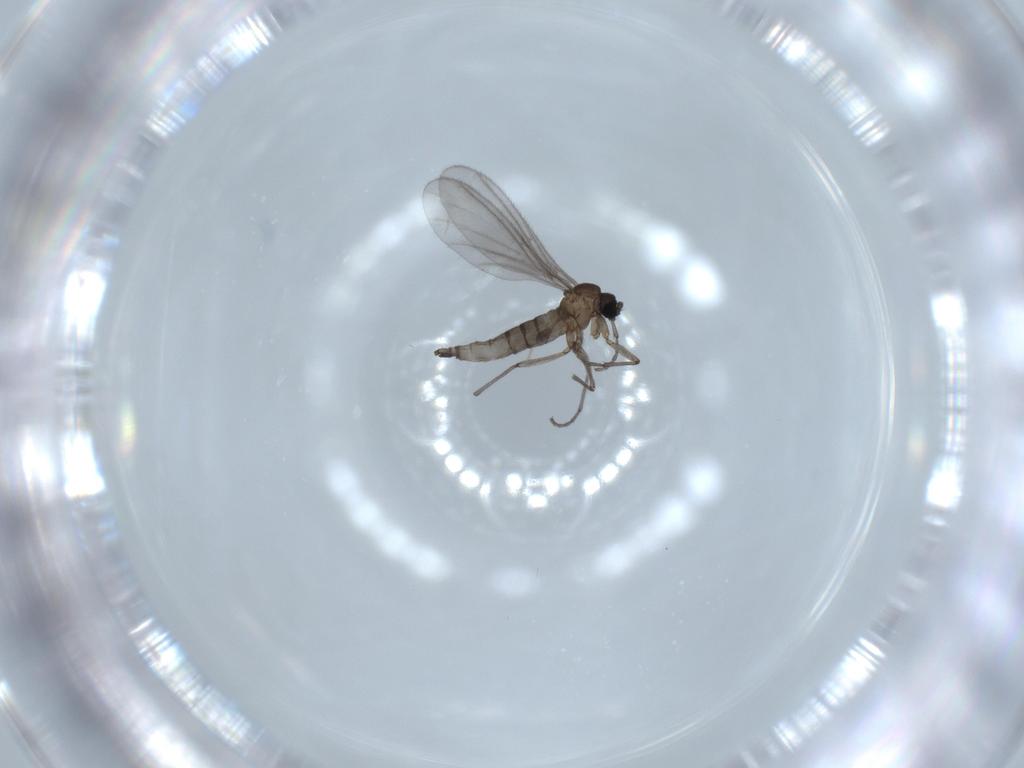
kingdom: Animalia
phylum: Arthropoda
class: Insecta
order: Diptera
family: Sciaridae
